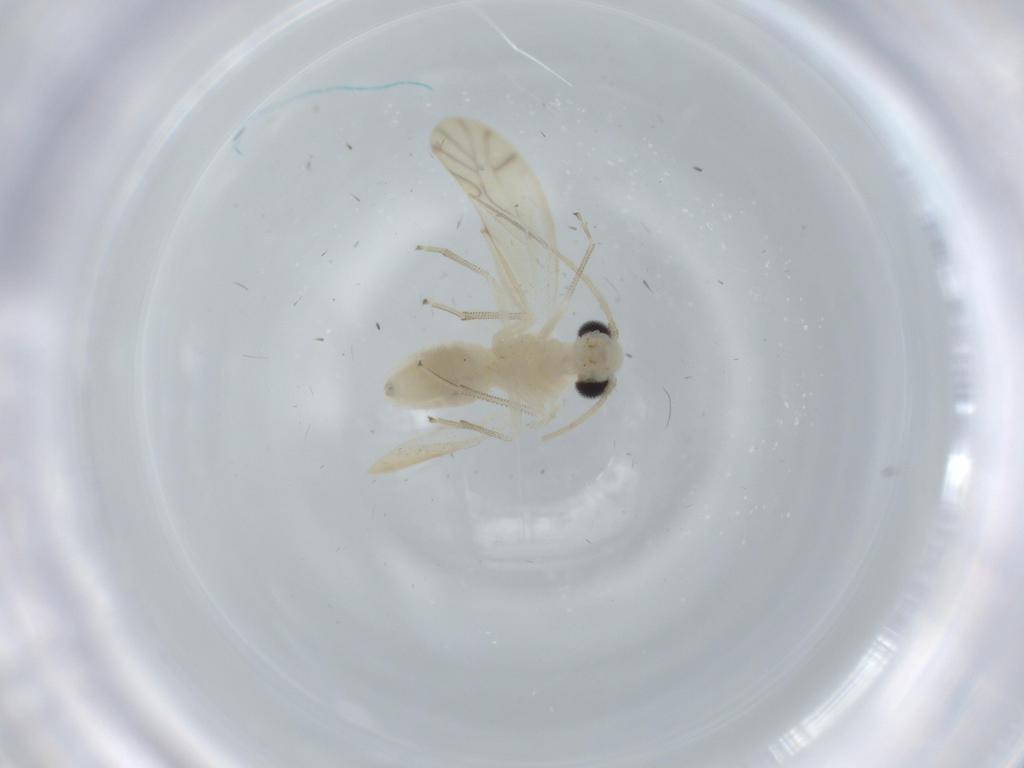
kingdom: Animalia
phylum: Arthropoda
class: Insecta
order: Psocodea
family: Caeciliusidae
